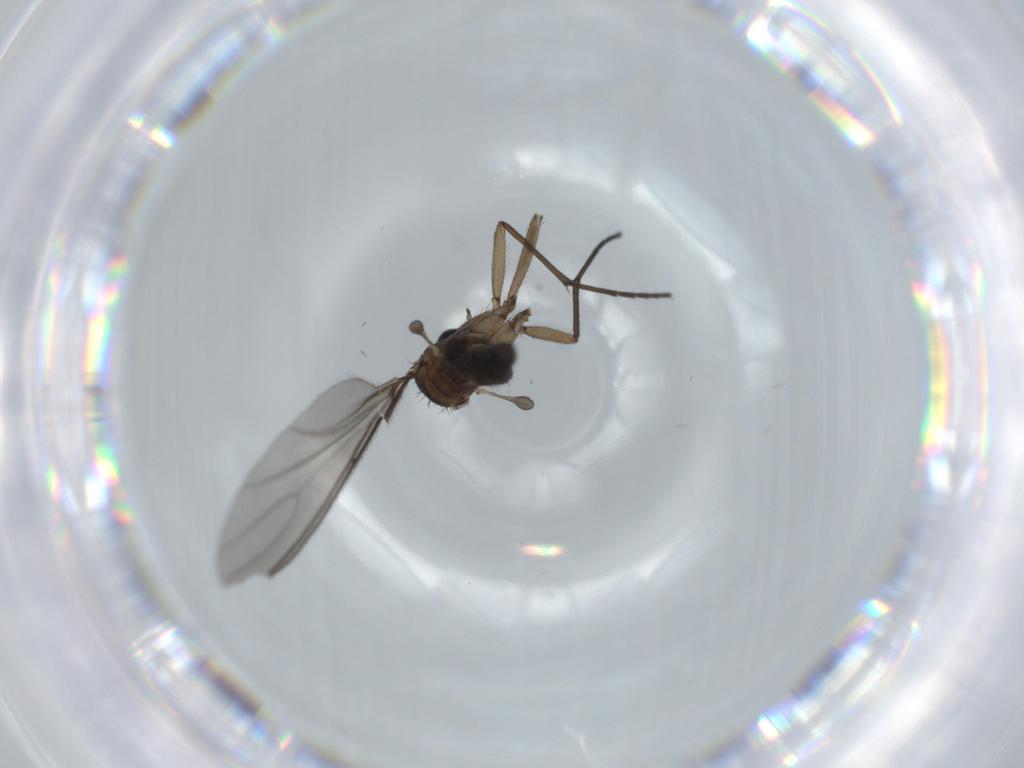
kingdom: Animalia
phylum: Arthropoda
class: Insecta
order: Diptera
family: Sciaridae
